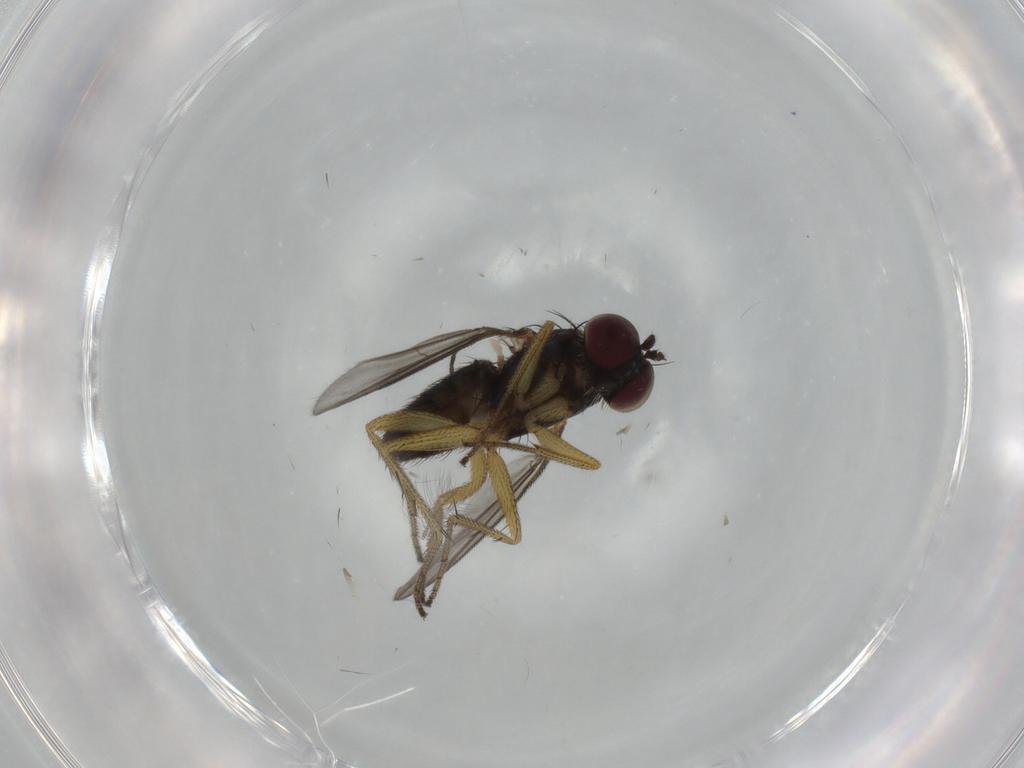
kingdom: Animalia
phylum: Arthropoda
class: Insecta
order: Diptera
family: Dolichopodidae
